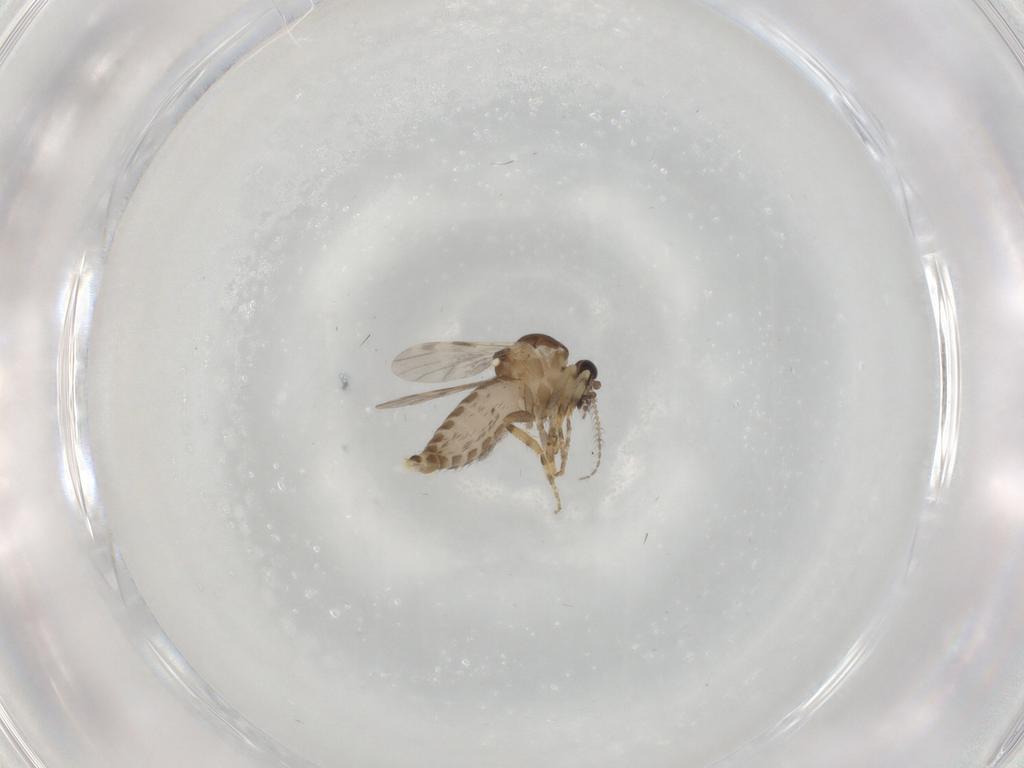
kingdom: Animalia
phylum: Arthropoda
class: Insecta
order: Diptera
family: Ceratopogonidae
